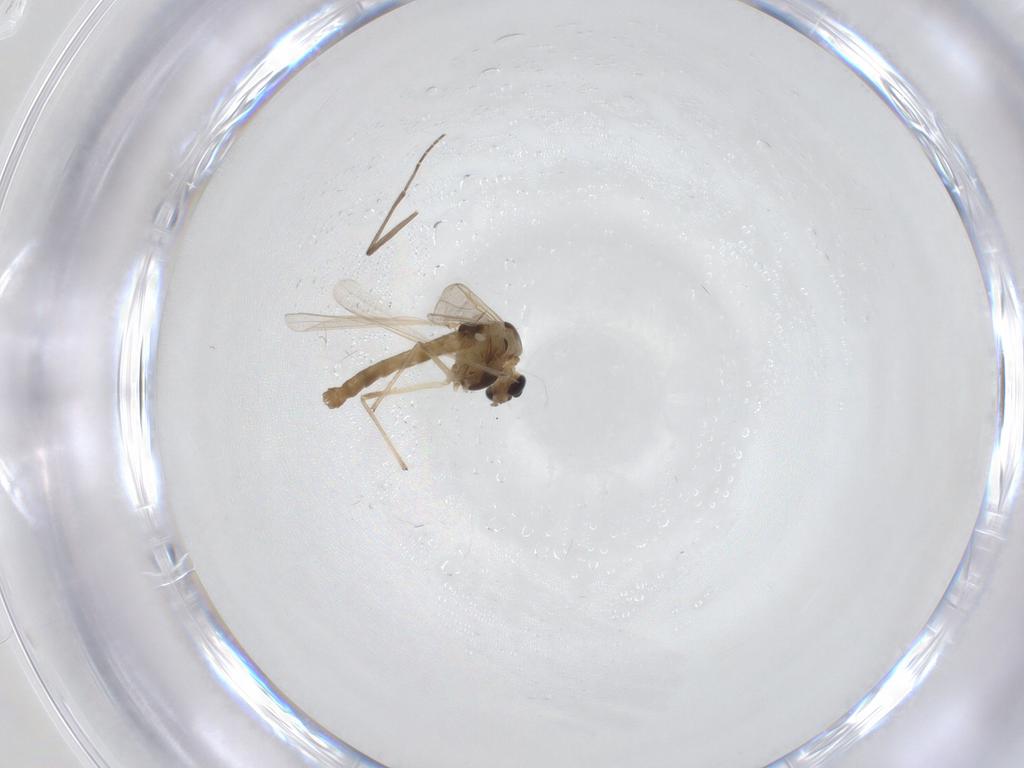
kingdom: Animalia
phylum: Arthropoda
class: Insecta
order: Diptera
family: Chironomidae
